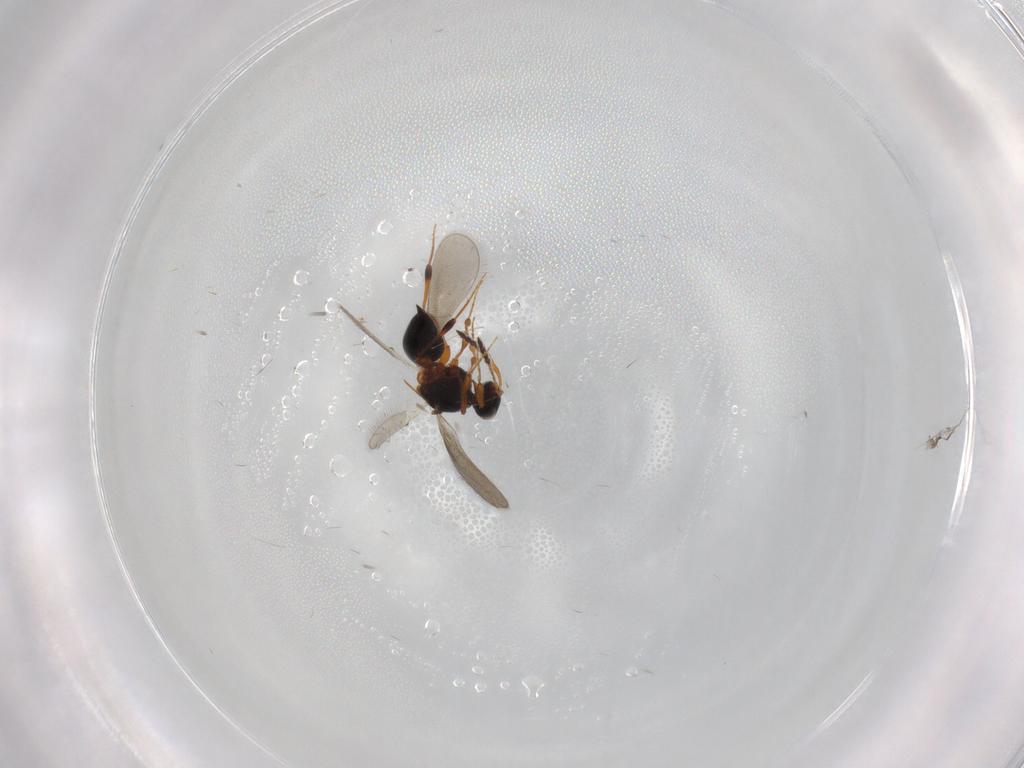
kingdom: Animalia
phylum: Arthropoda
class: Insecta
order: Hymenoptera
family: Platygastridae
